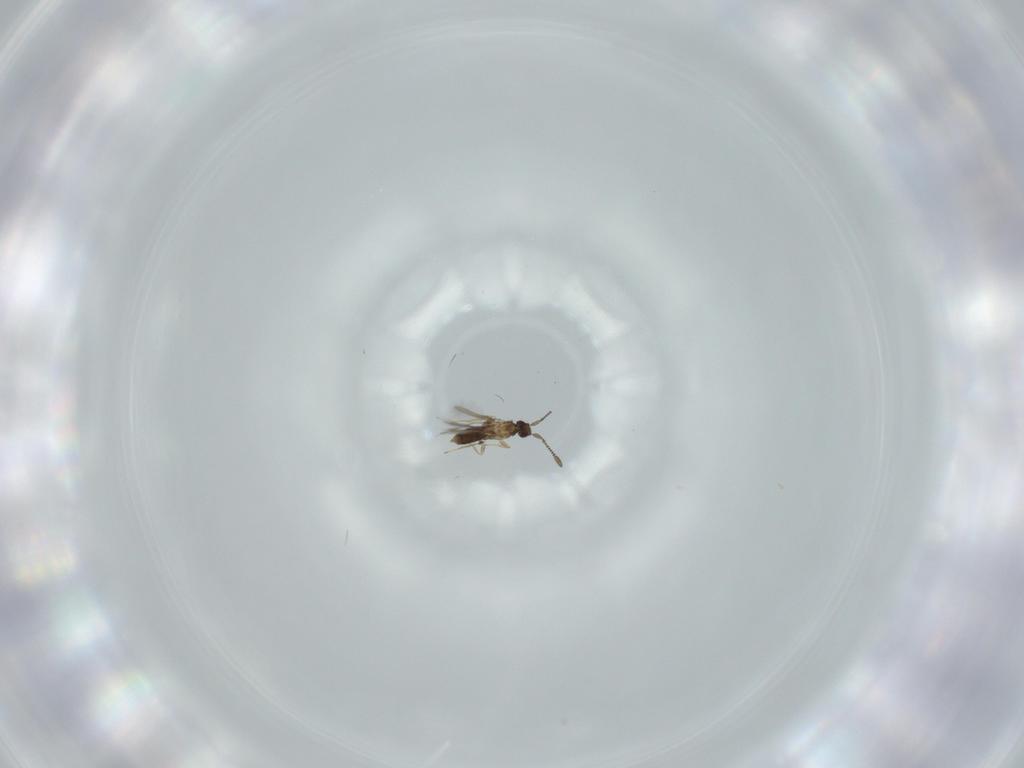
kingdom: Animalia
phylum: Arthropoda
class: Insecta
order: Hymenoptera
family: Mymaridae
